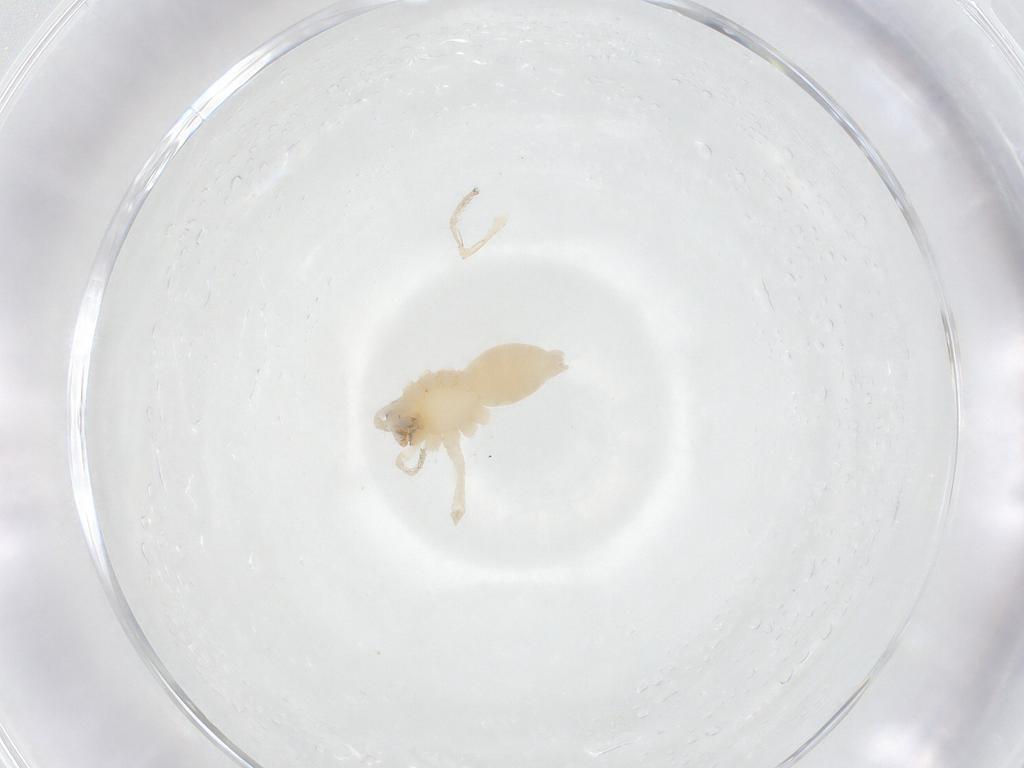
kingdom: Animalia
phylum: Arthropoda
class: Arachnida
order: Araneae
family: Anyphaenidae
